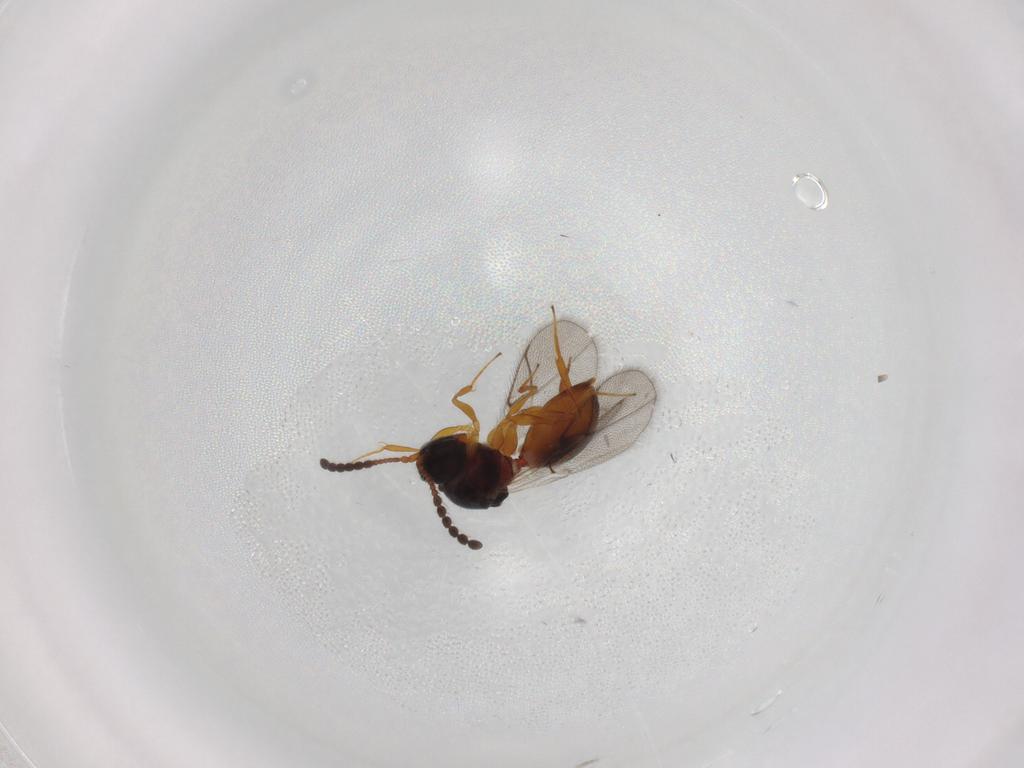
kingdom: Animalia
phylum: Arthropoda
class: Insecta
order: Hymenoptera
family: Figitidae
